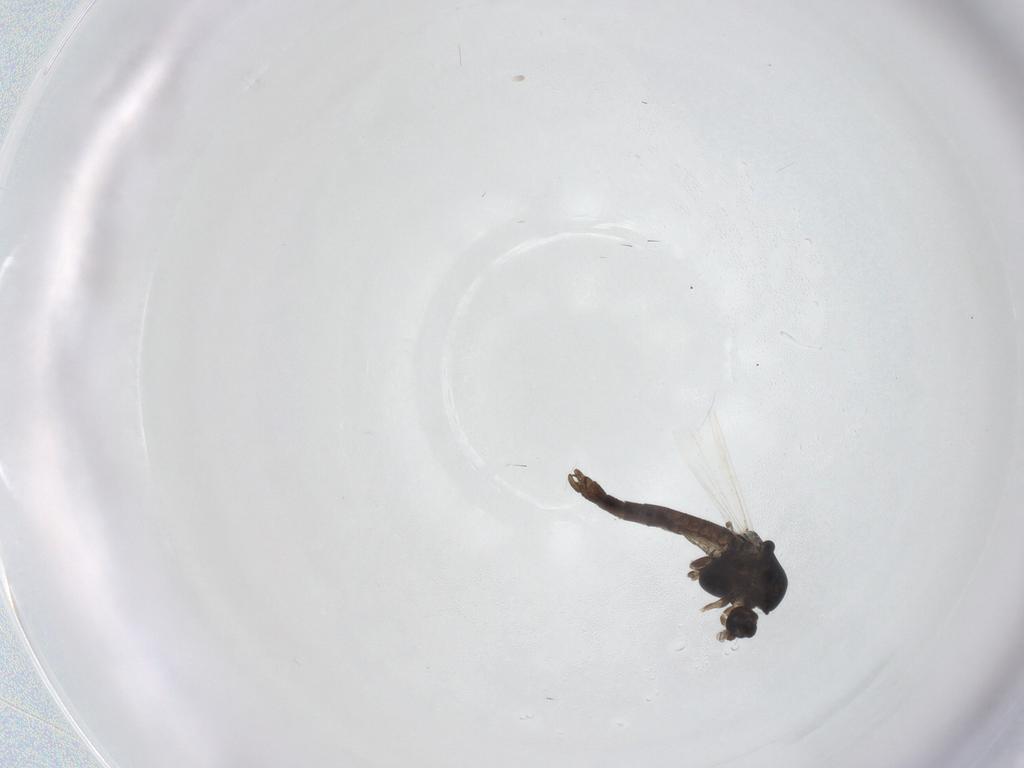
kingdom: Animalia
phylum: Arthropoda
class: Insecta
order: Diptera
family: Chironomidae
